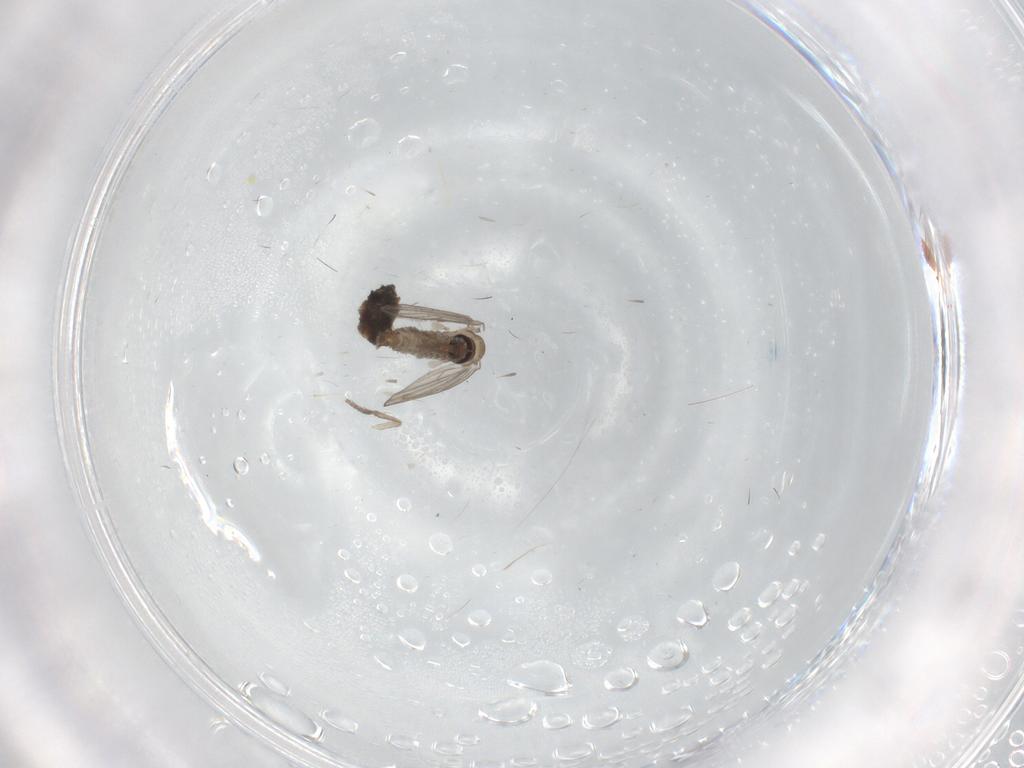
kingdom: Animalia
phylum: Arthropoda
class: Insecta
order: Diptera
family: Psychodidae
